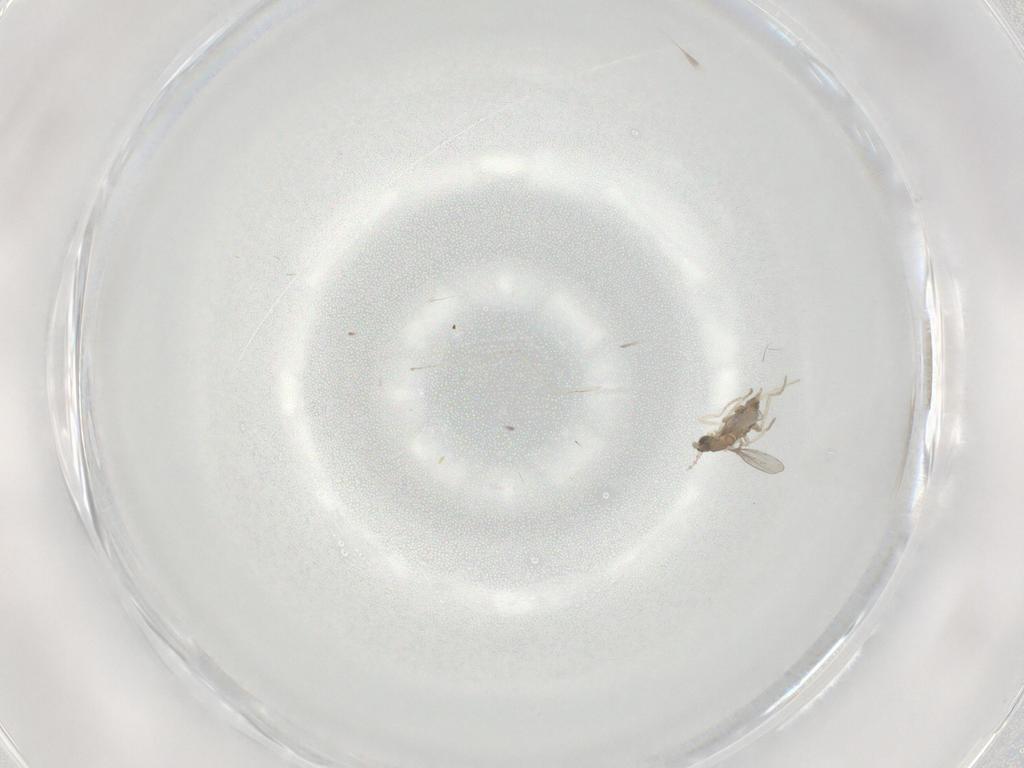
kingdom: Animalia
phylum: Arthropoda
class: Insecta
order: Diptera
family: Cecidomyiidae
